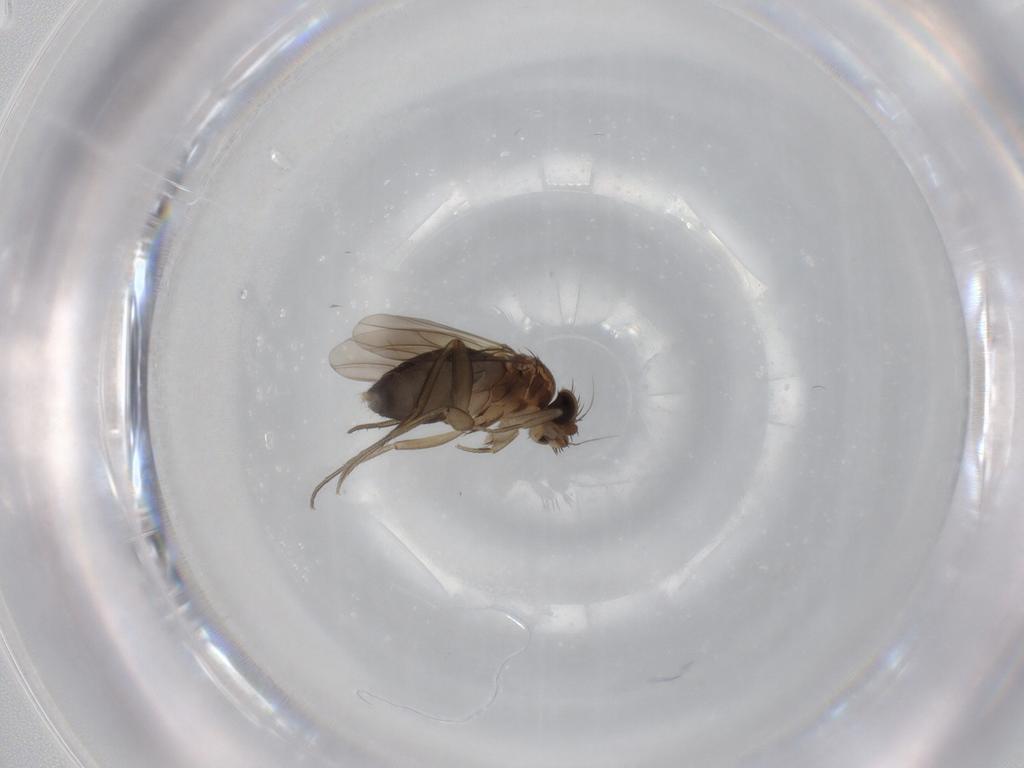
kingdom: Animalia
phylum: Arthropoda
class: Insecta
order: Diptera
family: Phoridae
